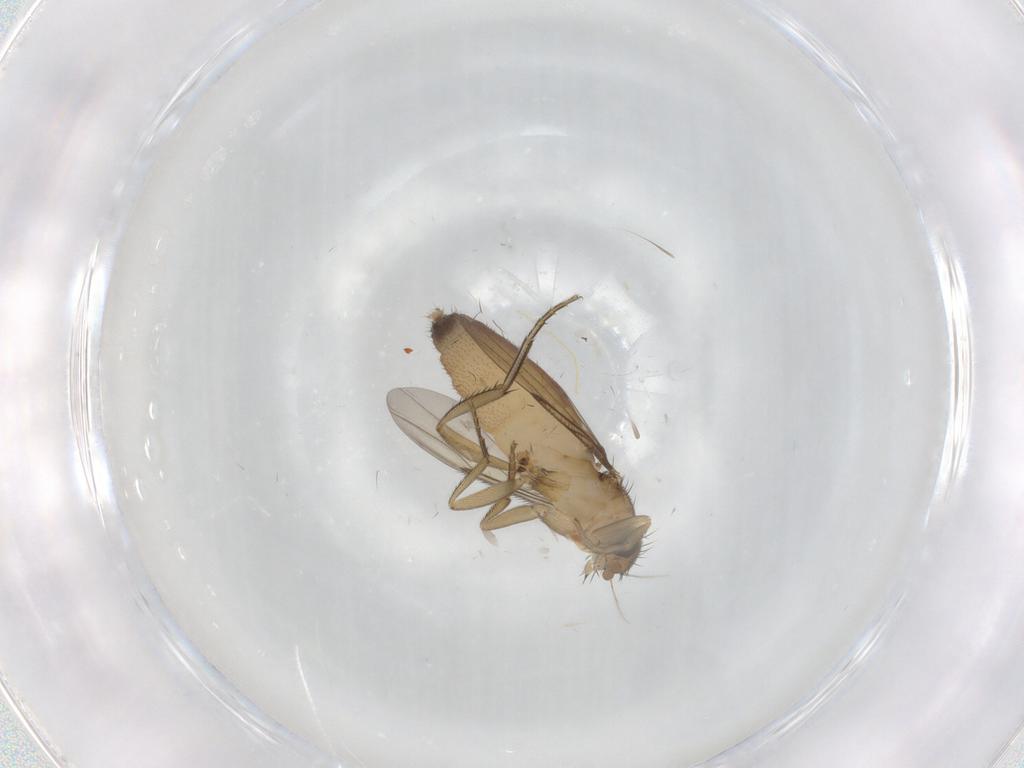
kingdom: Animalia
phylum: Arthropoda
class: Insecta
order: Diptera
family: Phoridae
